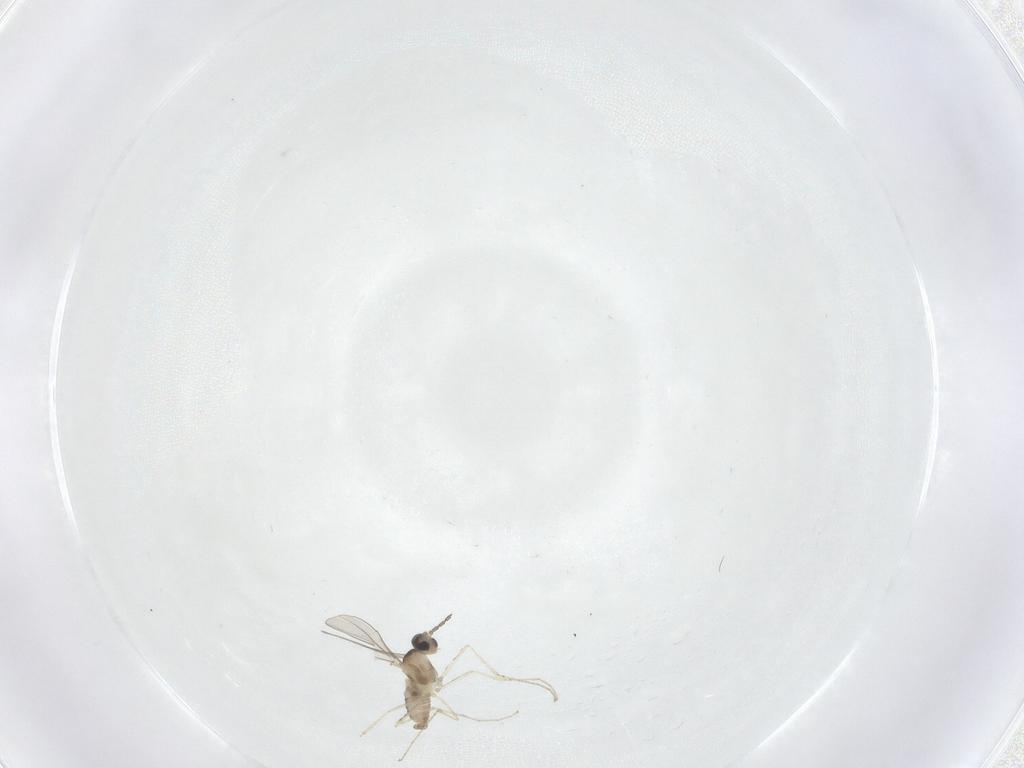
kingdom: Animalia
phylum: Arthropoda
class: Insecta
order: Diptera
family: Cecidomyiidae
